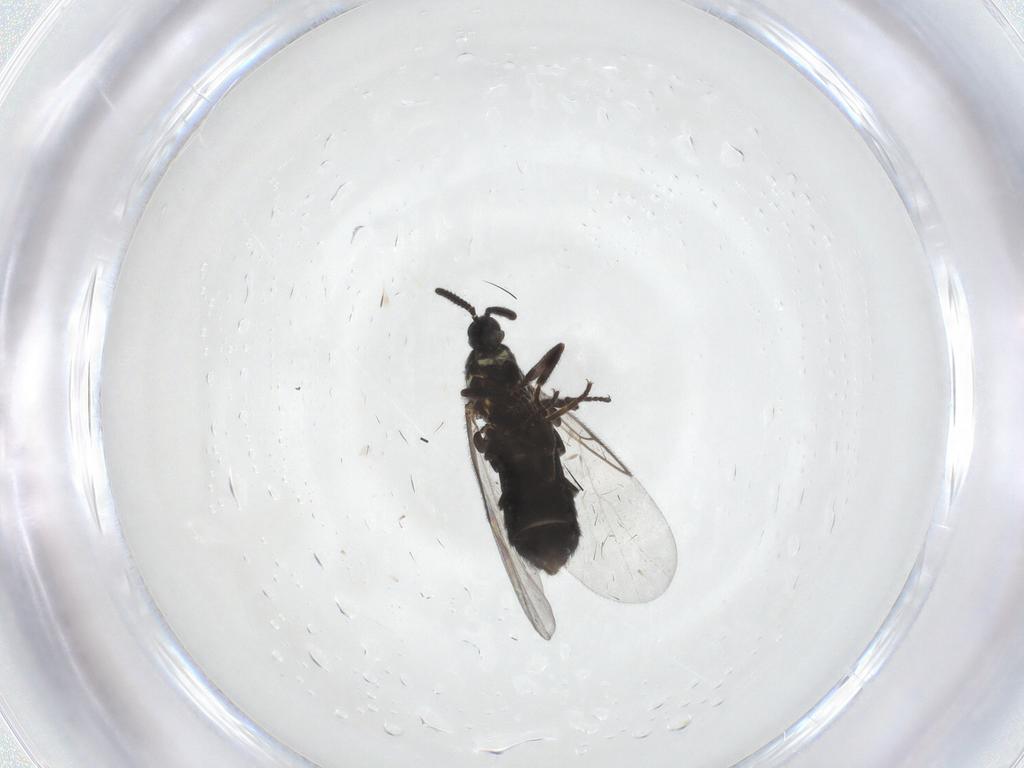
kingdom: Animalia
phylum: Arthropoda
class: Insecta
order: Diptera
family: Scatopsidae
